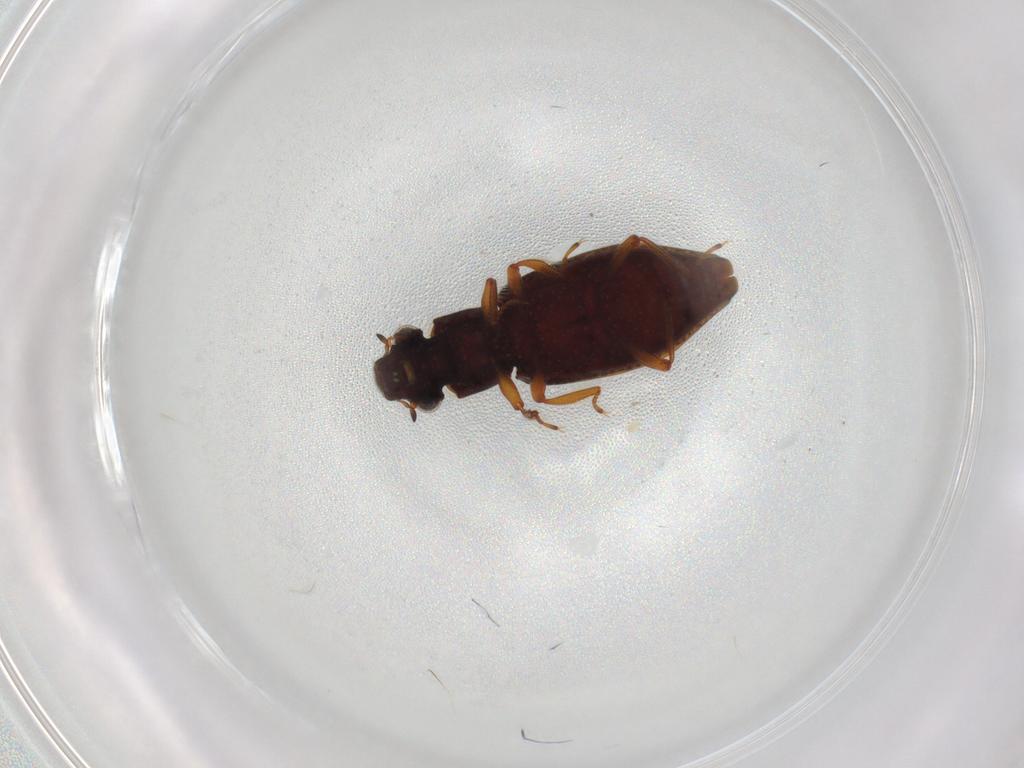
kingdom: Animalia
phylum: Arthropoda
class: Insecta
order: Coleoptera
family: Hydrophilidae
